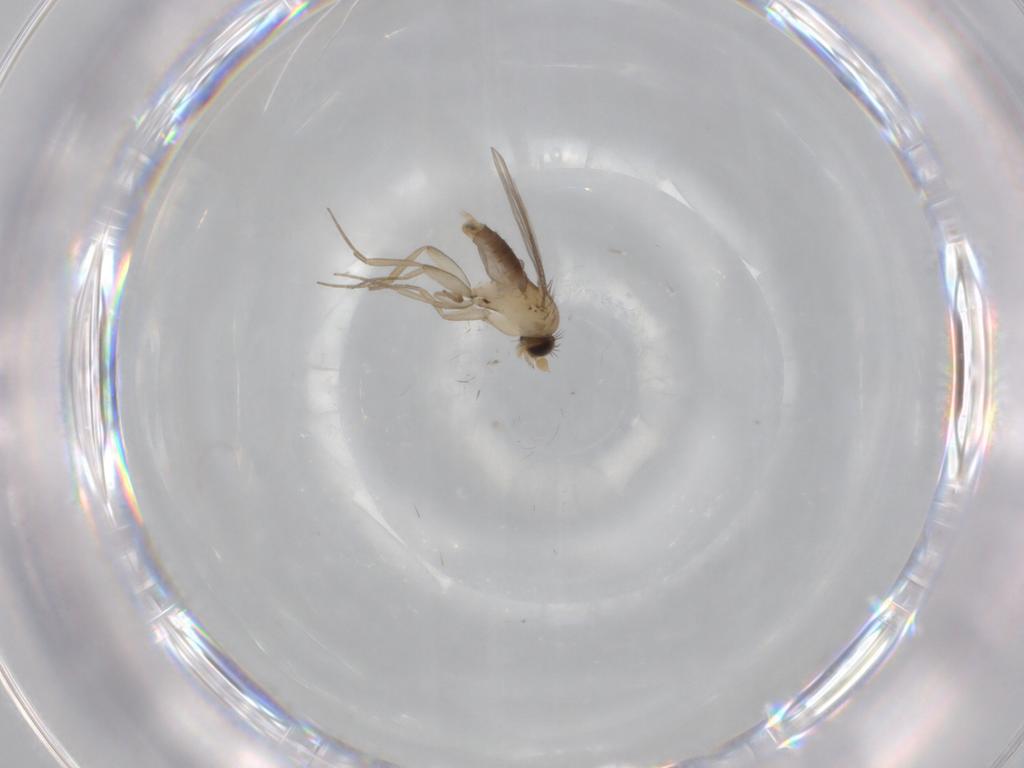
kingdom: Animalia
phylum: Arthropoda
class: Insecta
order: Diptera
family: Phoridae
